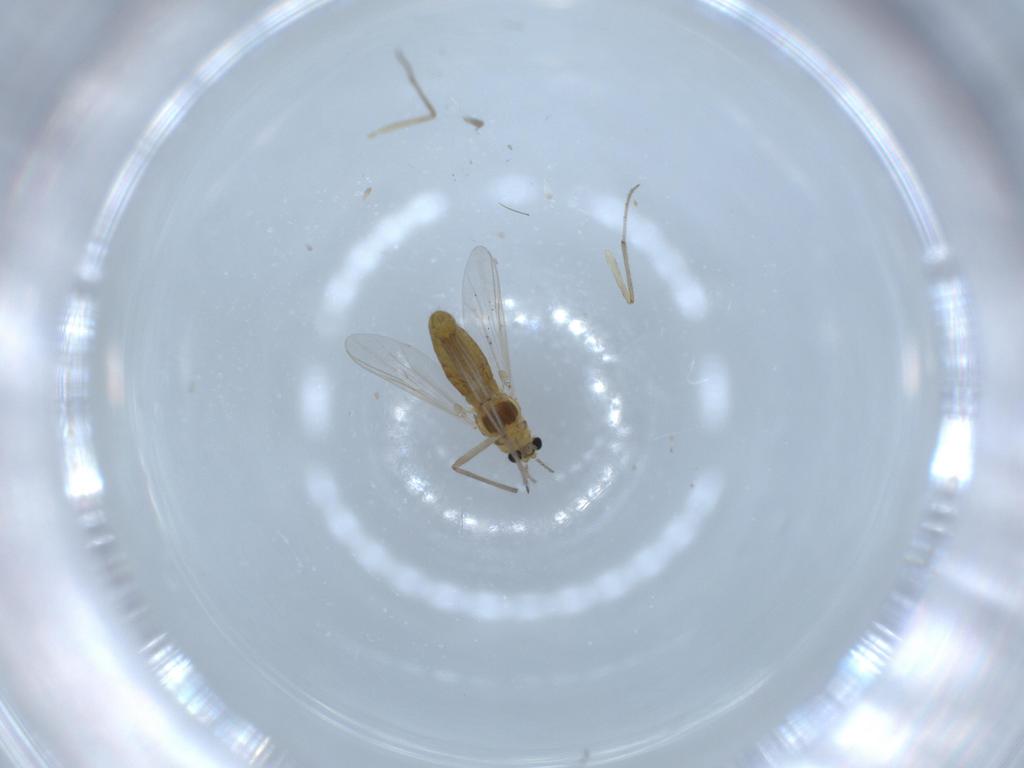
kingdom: Animalia
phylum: Arthropoda
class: Insecta
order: Diptera
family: Chironomidae
